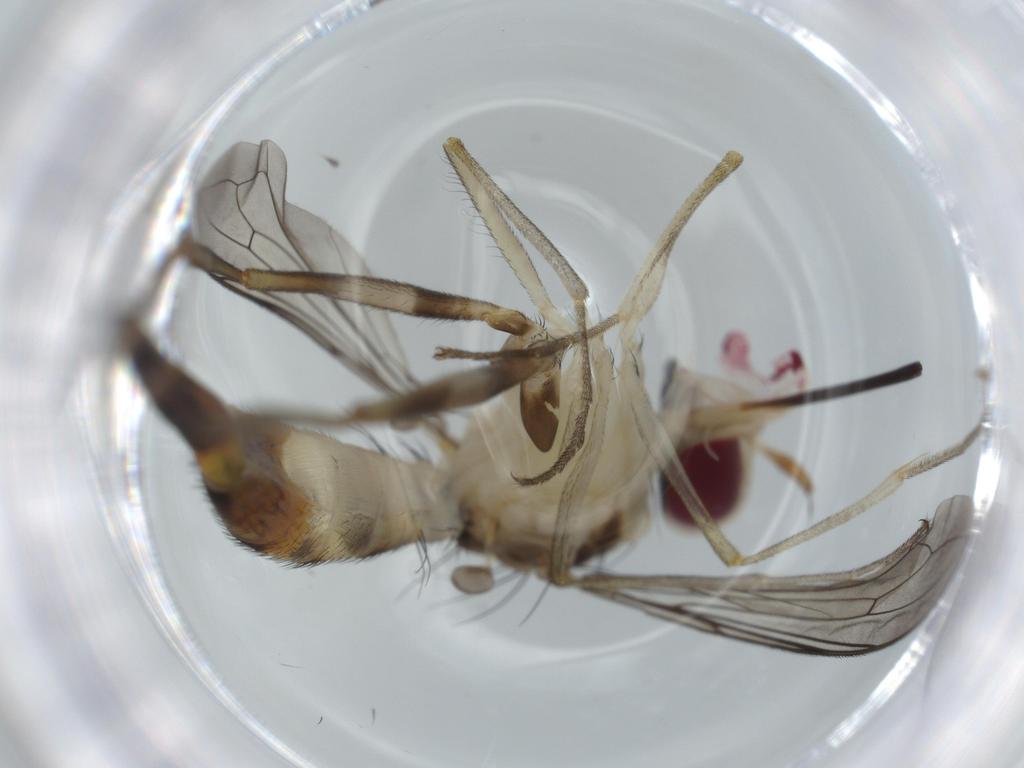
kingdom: Animalia
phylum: Arthropoda
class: Insecta
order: Diptera
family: Conopidae
